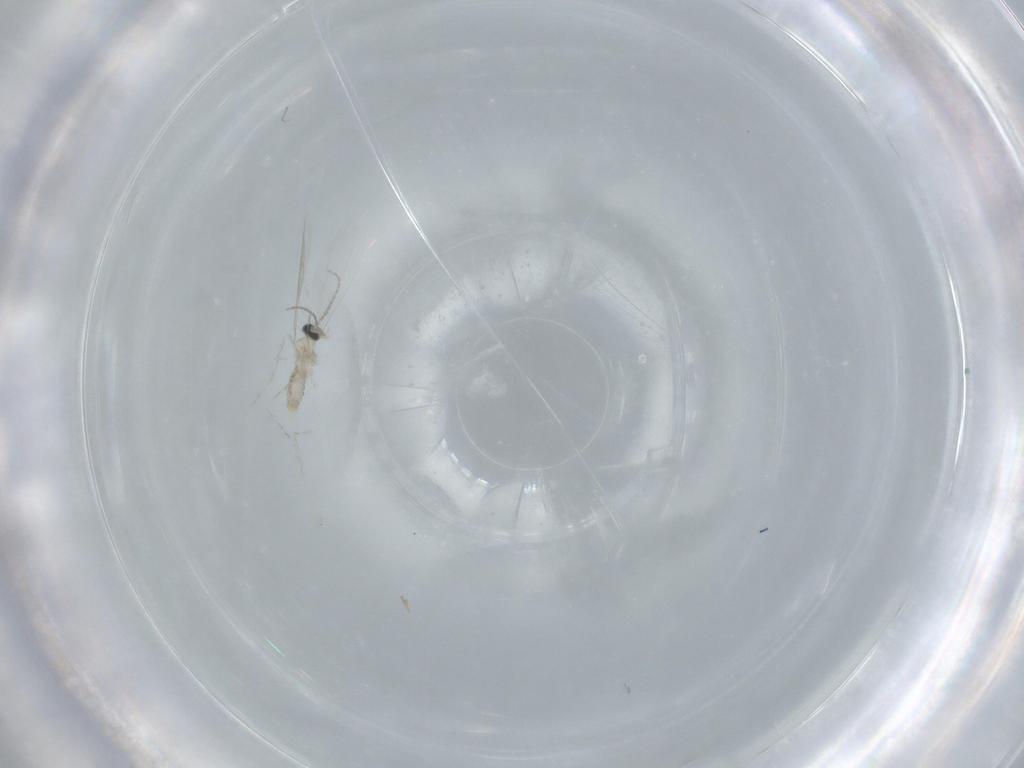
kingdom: Animalia
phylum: Arthropoda
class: Insecta
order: Diptera
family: Cecidomyiidae
